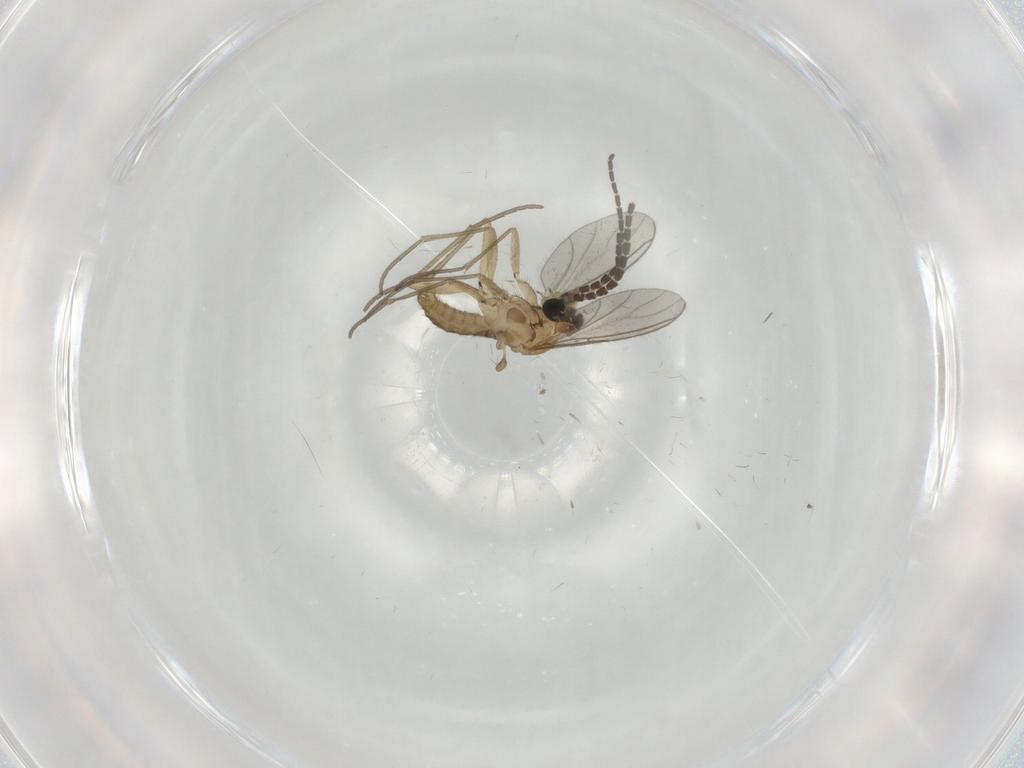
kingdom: Animalia
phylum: Arthropoda
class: Insecta
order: Diptera
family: Sciaridae
